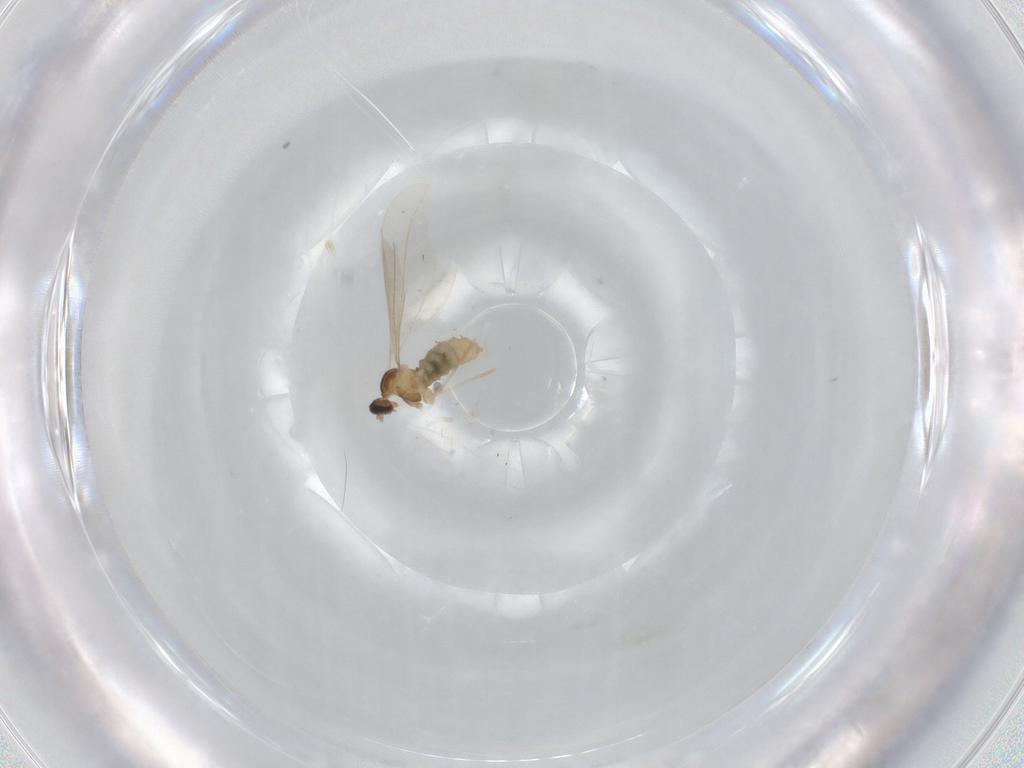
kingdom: Animalia
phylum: Arthropoda
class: Insecta
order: Diptera
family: Cecidomyiidae
